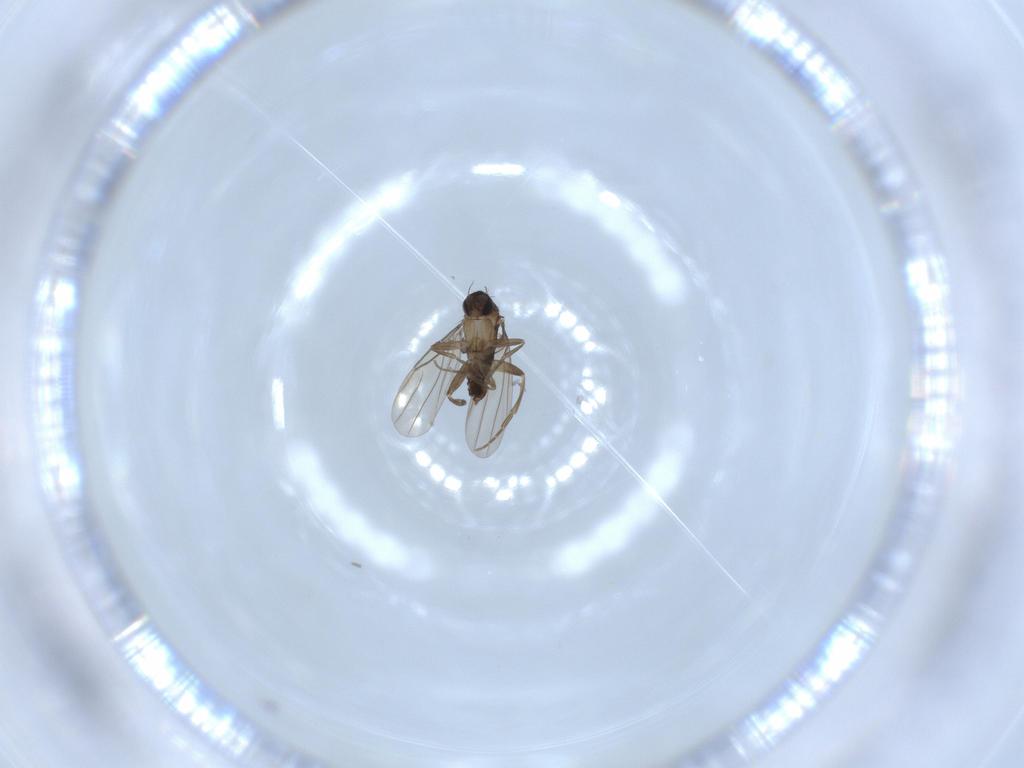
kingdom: Animalia
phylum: Arthropoda
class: Insecta
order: Diptera
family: Phoridae
